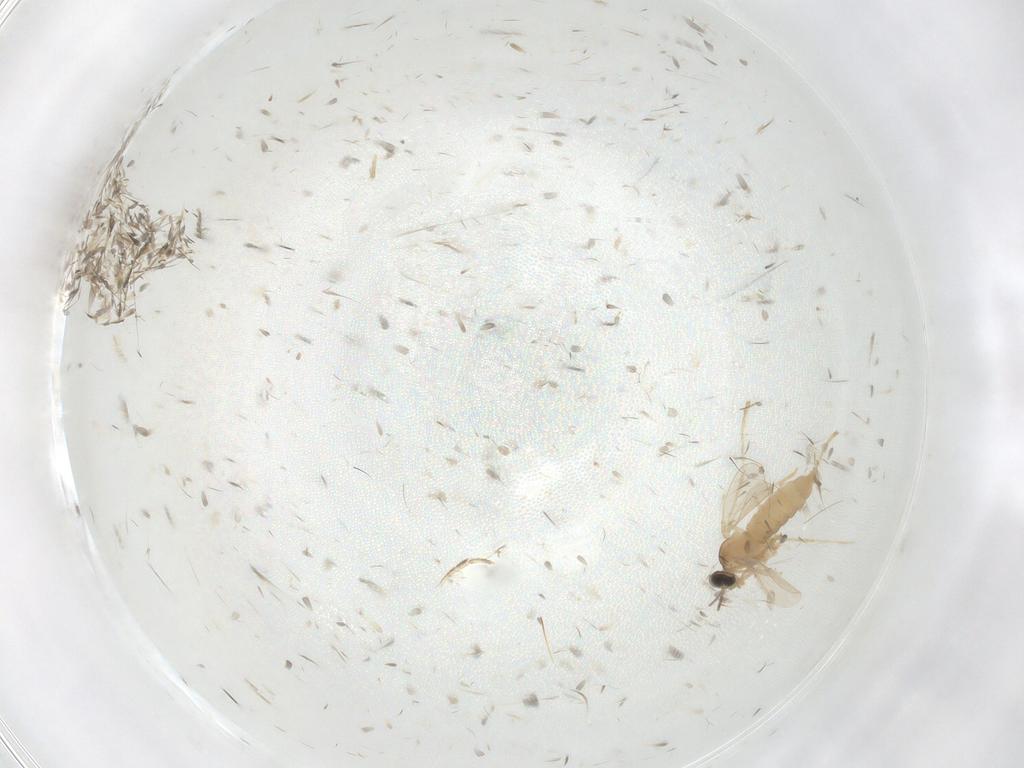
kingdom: Animalia
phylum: Arthropoda
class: Insecta
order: Diptera
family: Cecidomyiidae
